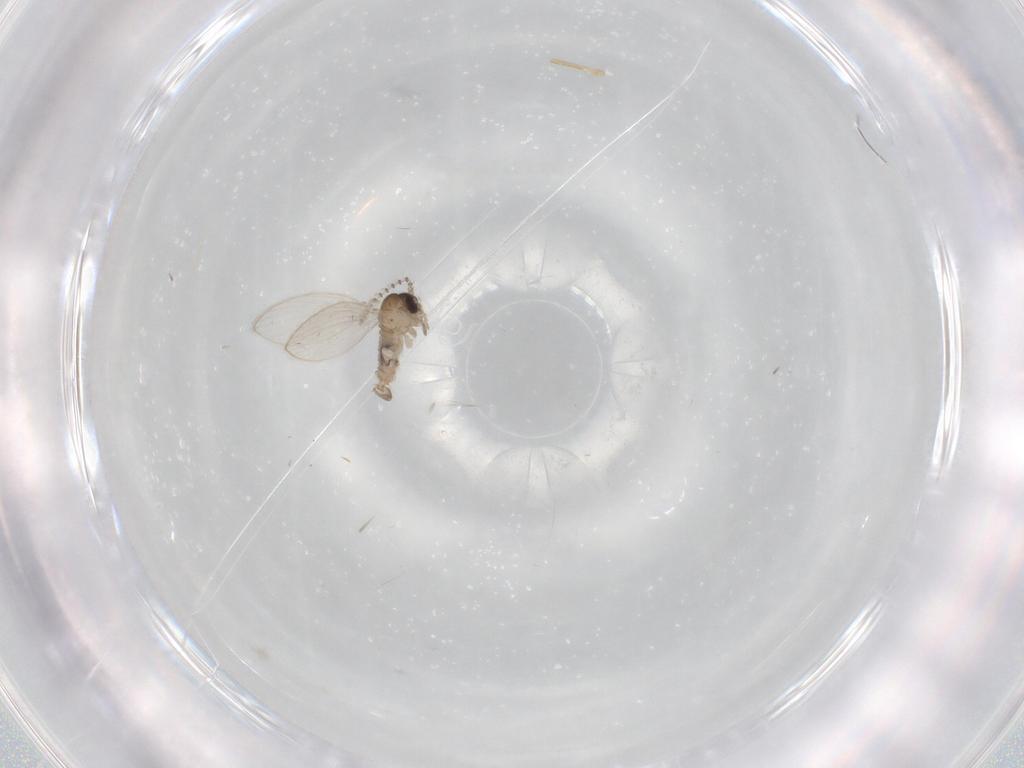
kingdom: Animalia
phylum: Arthropoda
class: Insecta
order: Diptera
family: Psychodidae
